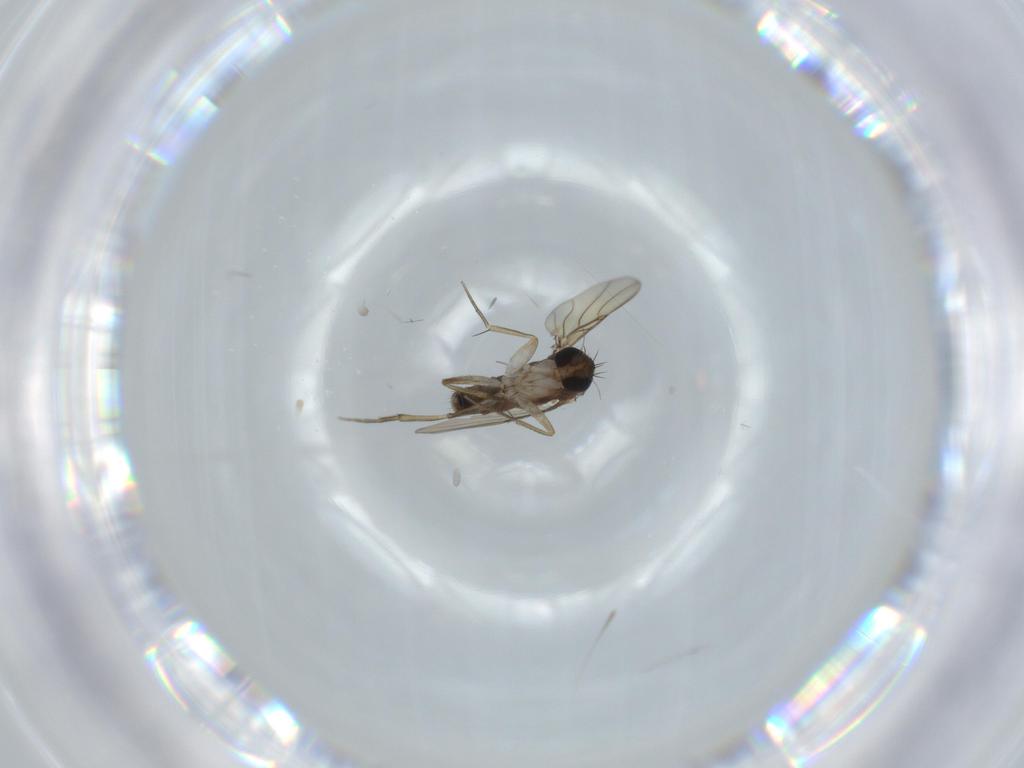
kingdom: Animalia
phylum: Arthropoda
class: Insecta
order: Diptera
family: Phoridae
